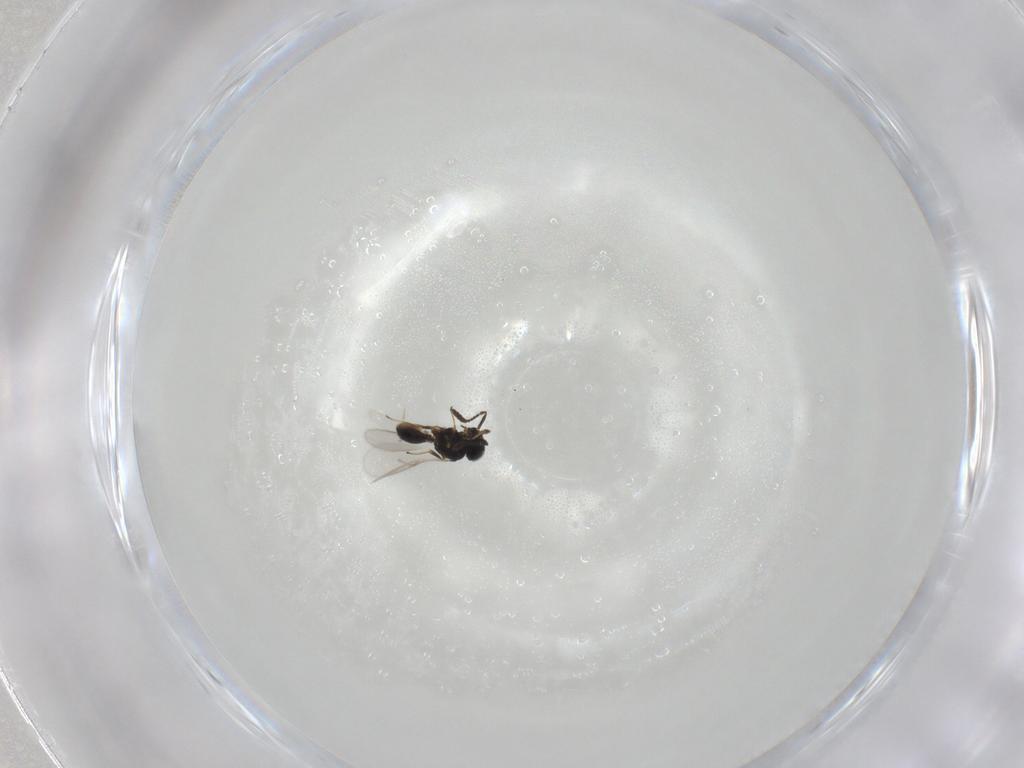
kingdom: Animalia
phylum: Arthropoda
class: Insecta
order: Hymenoptera
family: Scelionidae
